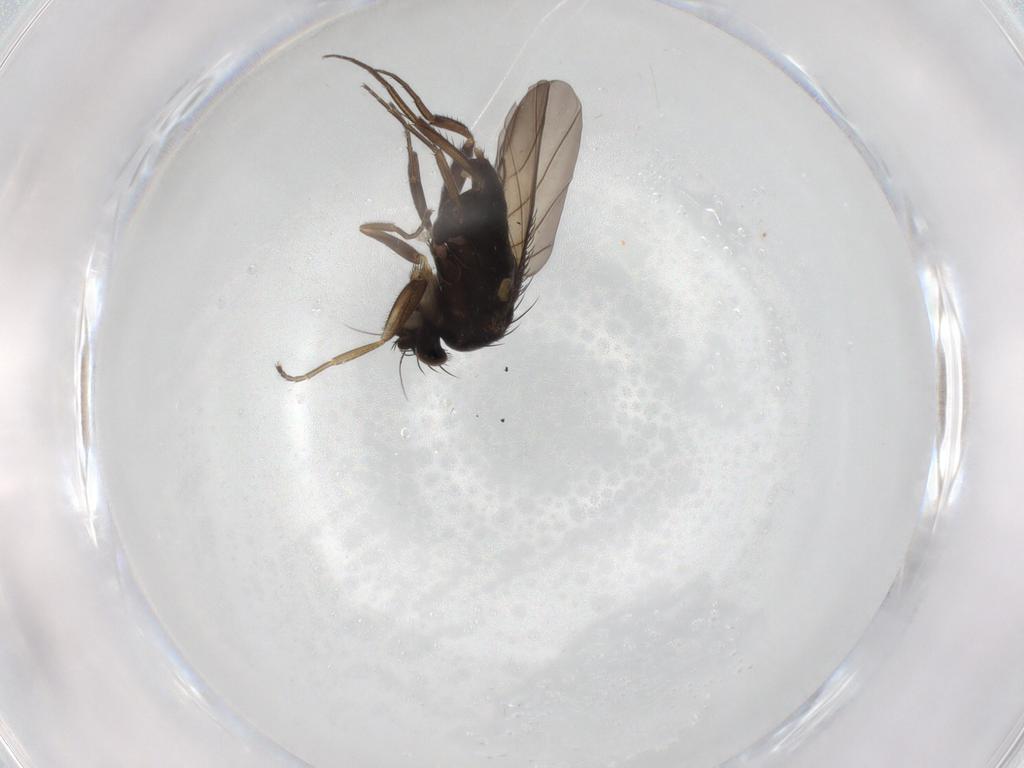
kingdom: Animalia
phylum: Arthropoda
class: Insecta
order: Diptera
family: Phoridae
